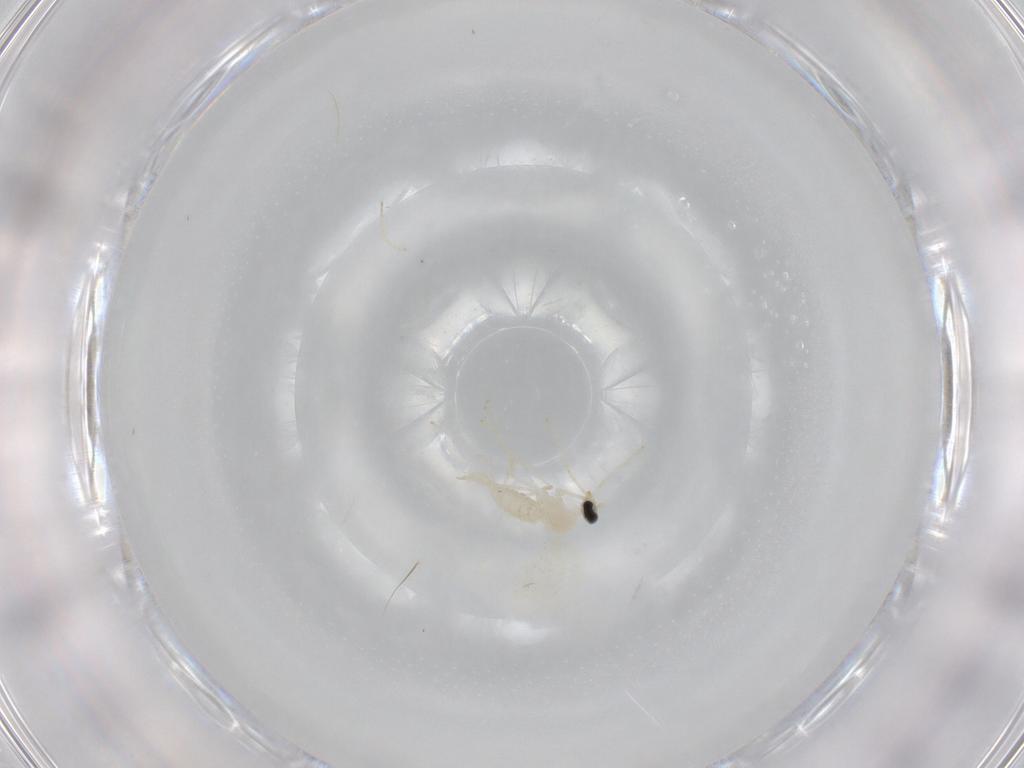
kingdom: Animalia
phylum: Arthropoda
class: Insecta
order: Diptera
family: Cecidomyiidae
